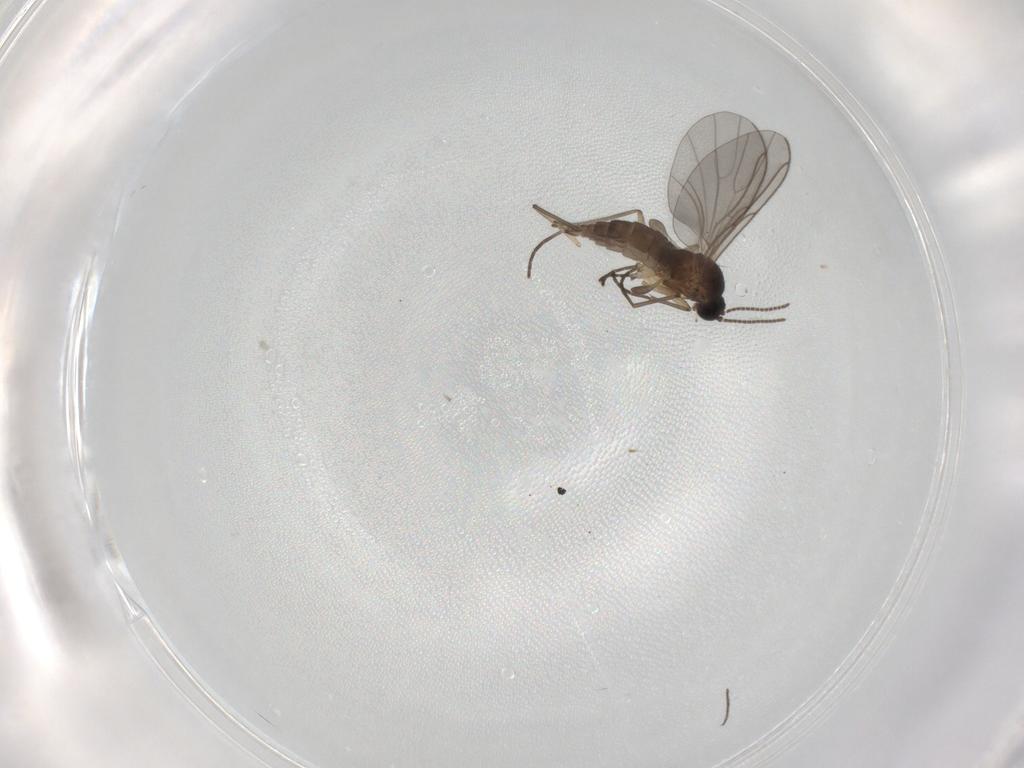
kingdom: Animalia
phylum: Arthropoda
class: Insecta
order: Diptera
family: Sciaridae
